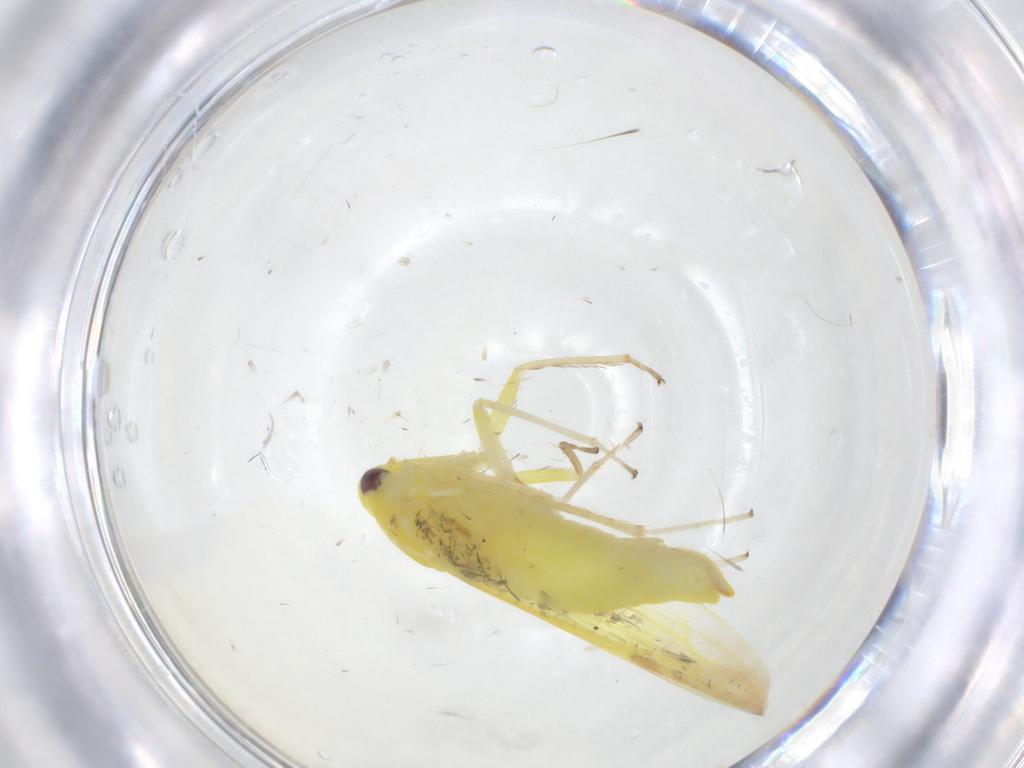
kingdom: Animalia
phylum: Arthropoda
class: Insecta
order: Hemiptera
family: Cicadellidae
